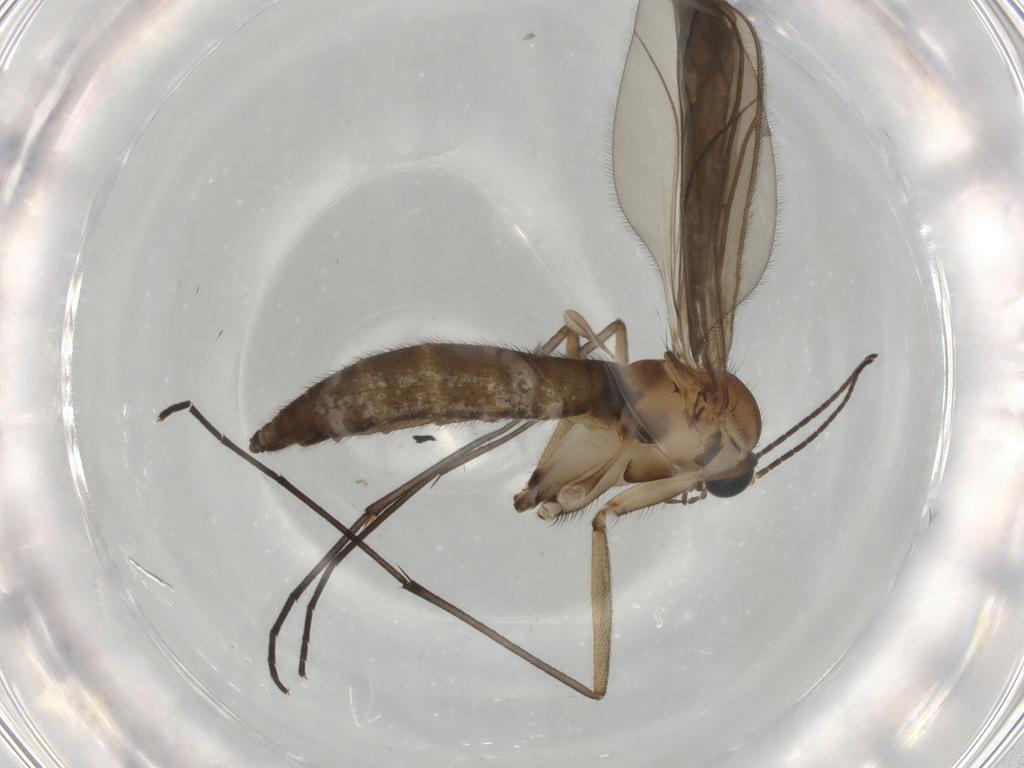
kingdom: Animalia
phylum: Arthropoda
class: Insecta
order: Diptera
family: Sciaridae
